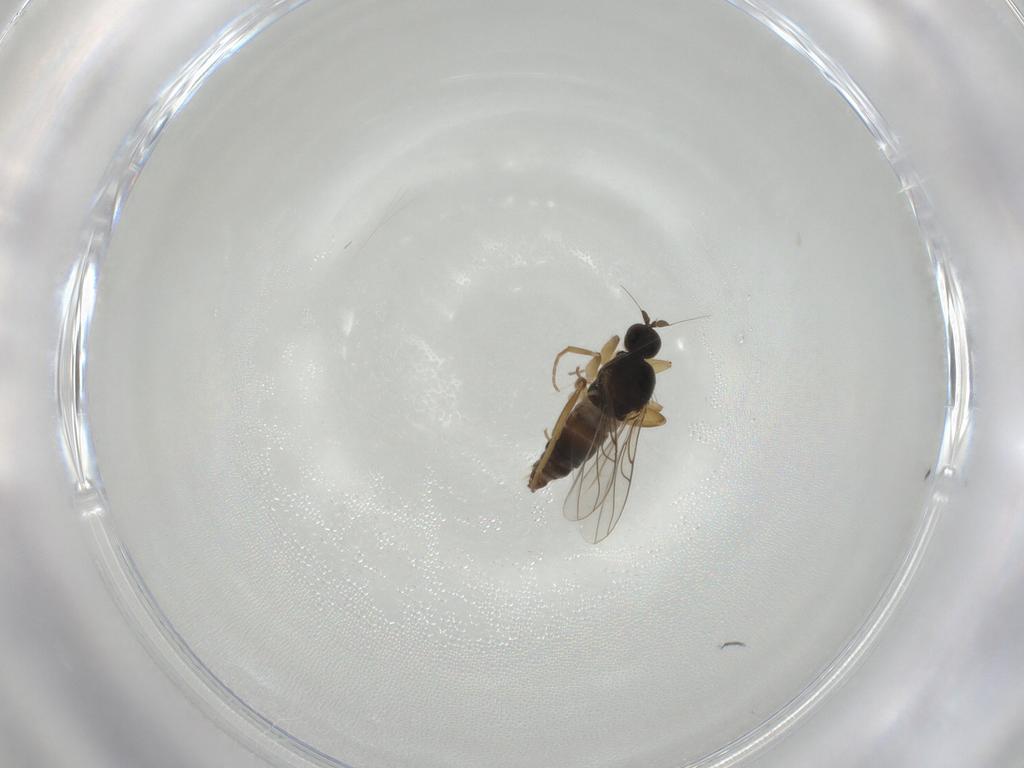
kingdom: Animalia
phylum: Arthropoda
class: Insecta
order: Diptera
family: Hybotidae
